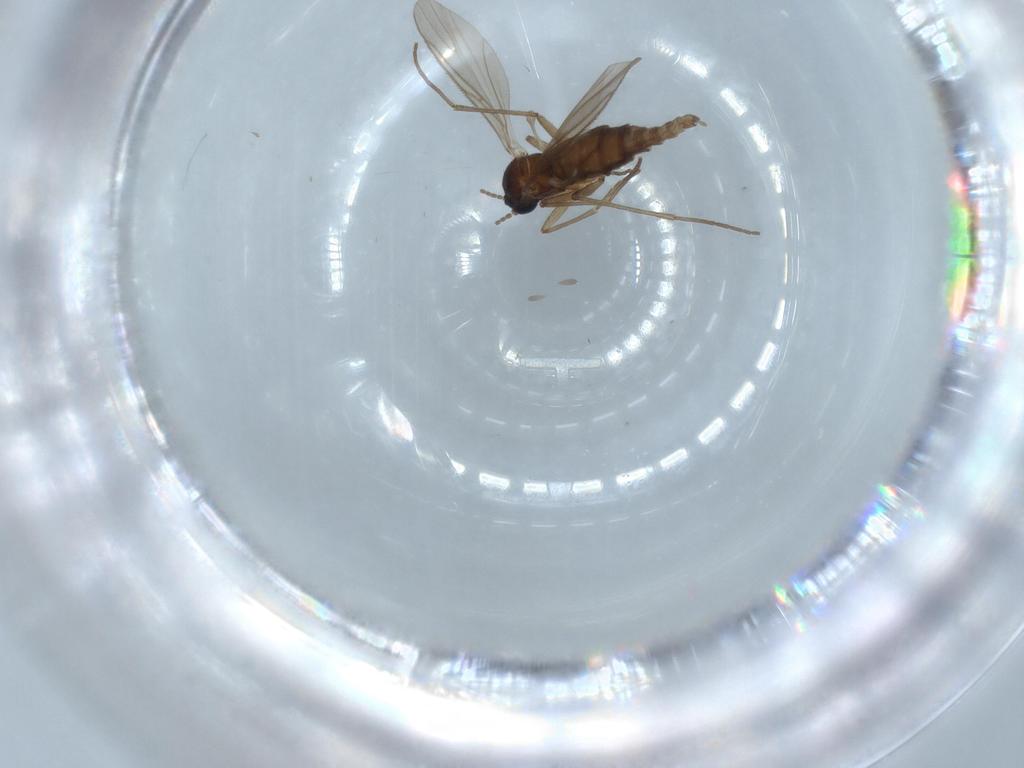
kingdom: Animalia
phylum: Arthropoda
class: Insecta
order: Diptera
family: Sciaridae
